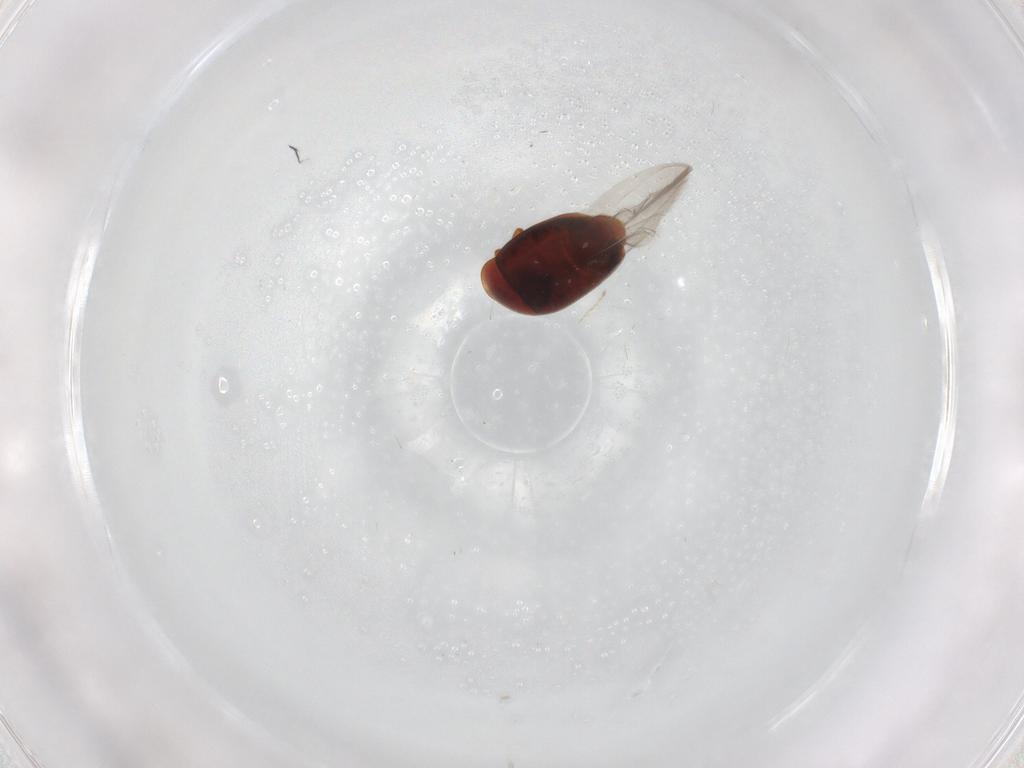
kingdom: Animalia
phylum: Arthropoda
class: Insecta
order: Coleoptera
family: Corylophidae
